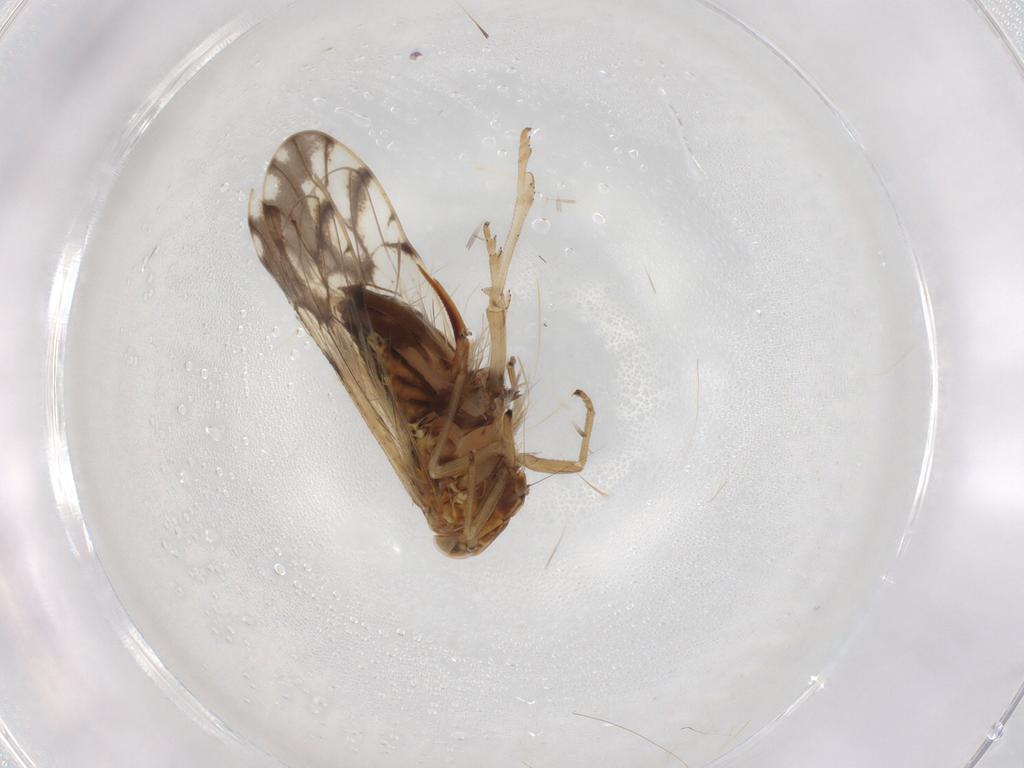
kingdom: Animalia
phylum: Arthropoda
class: Insecta
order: Hemiptera
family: Delphacidae
